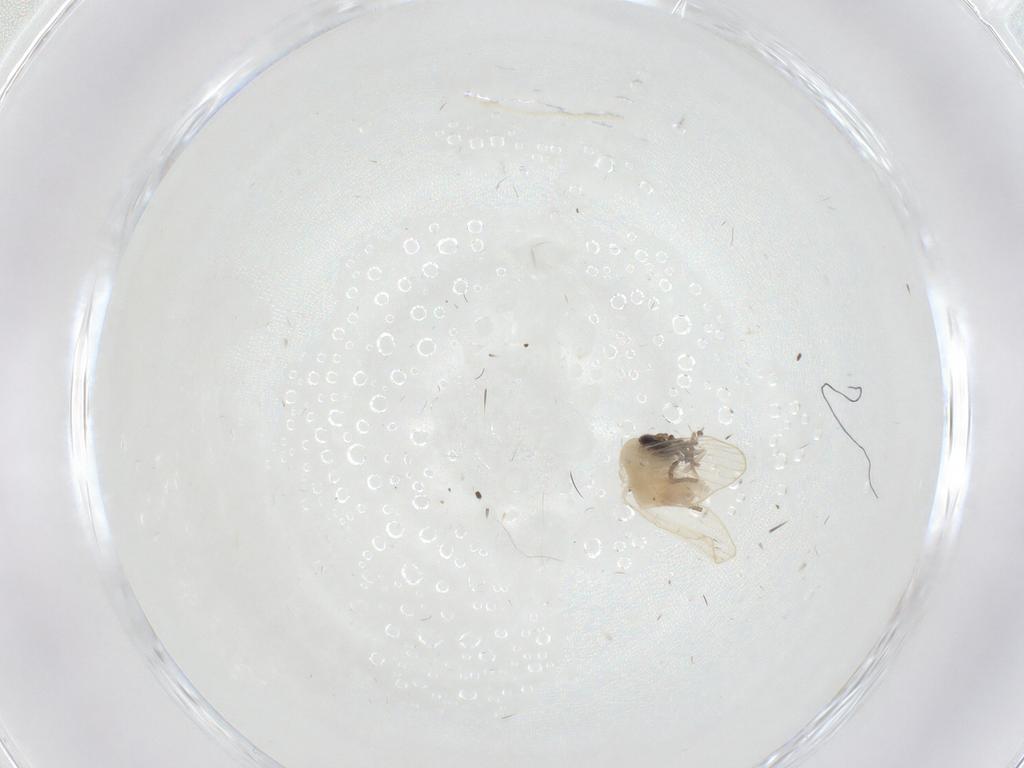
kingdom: Animalia
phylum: Arthropoda
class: Insecta
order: Diptera
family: Psychodidae
